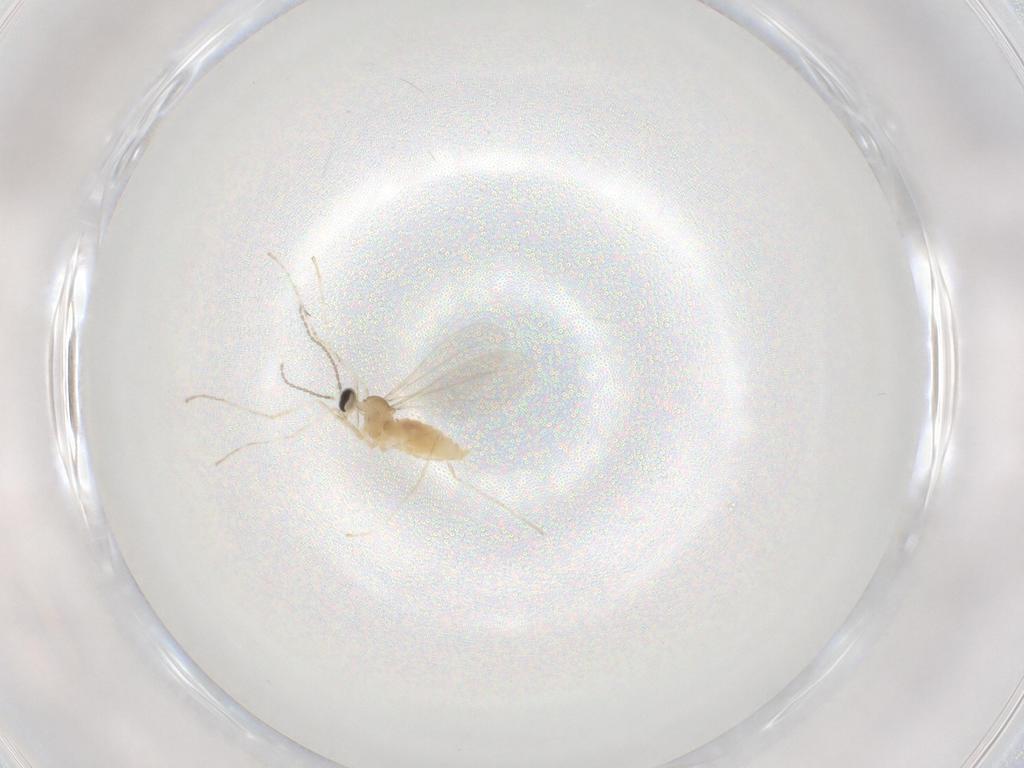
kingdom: Animalia
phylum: Arthropoda
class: Insecta
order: Diptera
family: Cecidomyiidae
